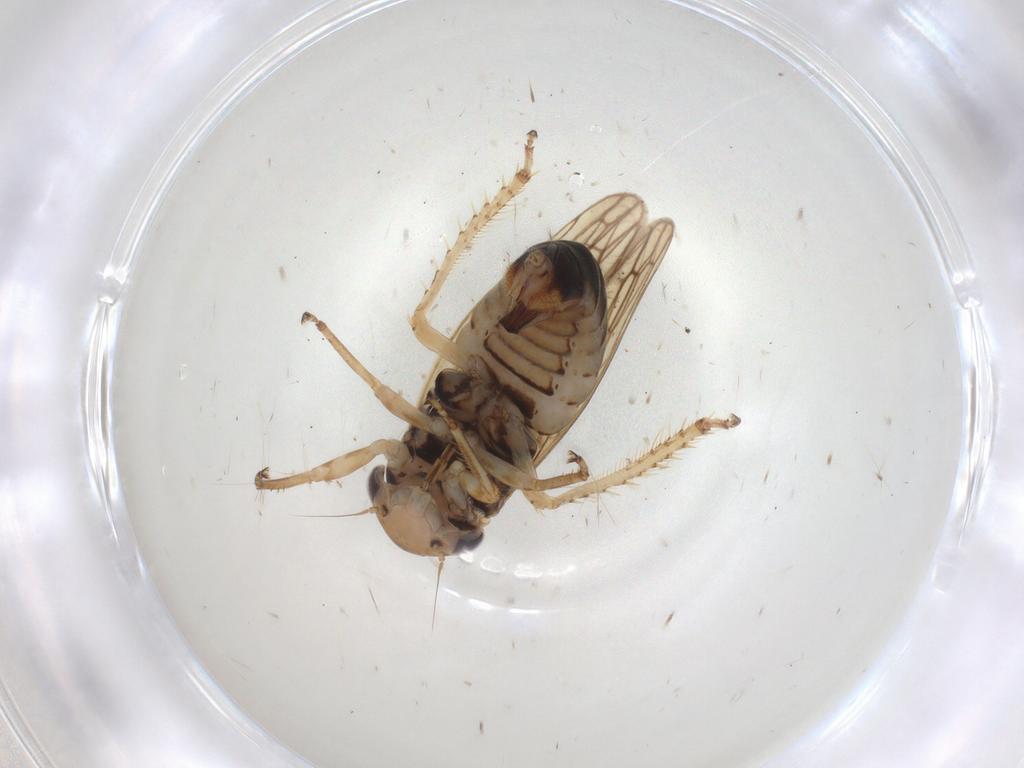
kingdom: Animalia
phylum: Arthropoda
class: Insecta
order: Hemiptera
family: Cicadellidae
